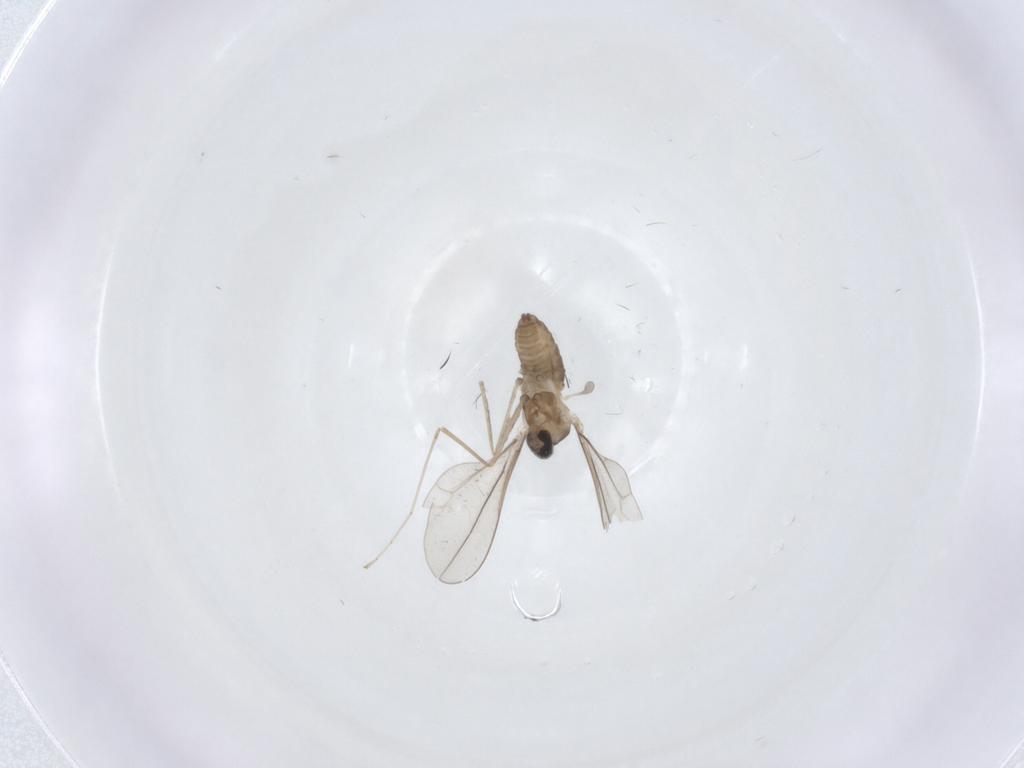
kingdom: Animalia
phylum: Arthropoda
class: Insecta
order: Diptera
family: Cecidomyiidae
